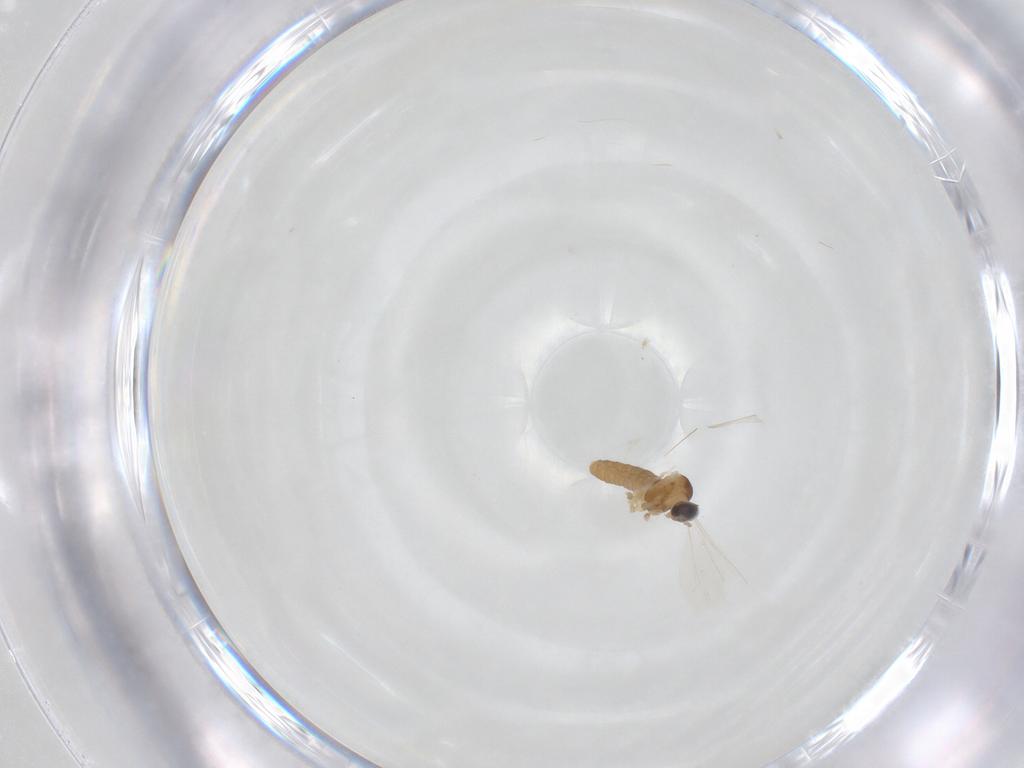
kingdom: Animalia
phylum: Arthropoda
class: Insecta
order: Diptera
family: Cecidomyiidae
